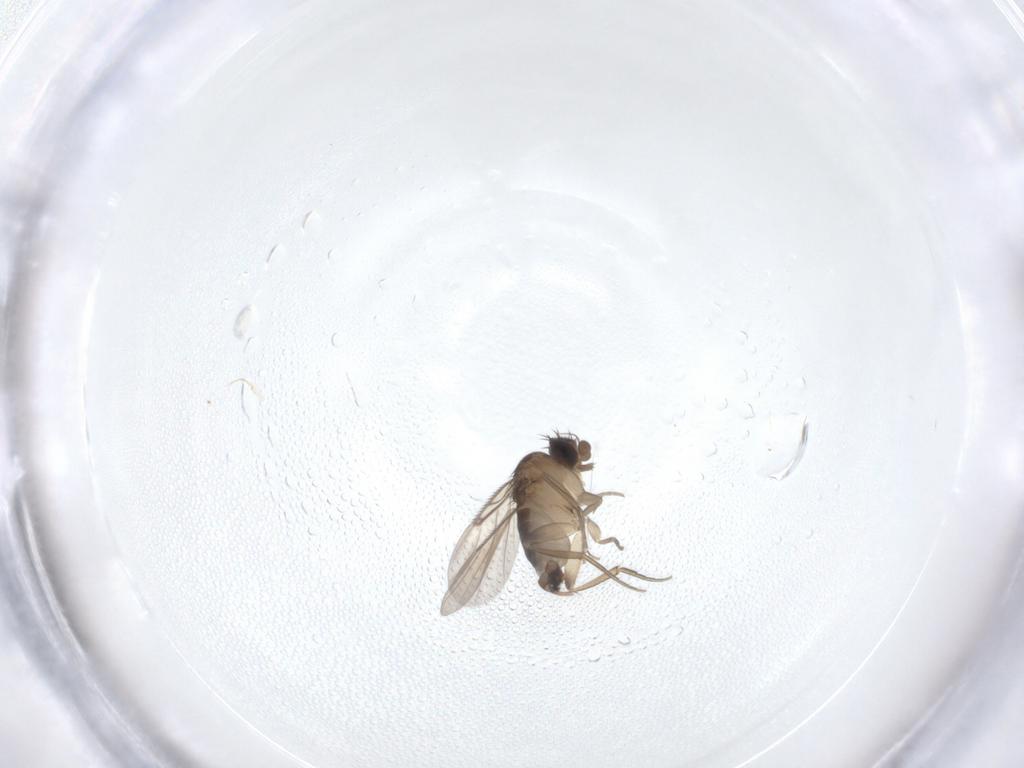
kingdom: Animalia
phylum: Arthropoda
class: Insecta
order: Diptera
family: Phoridae
